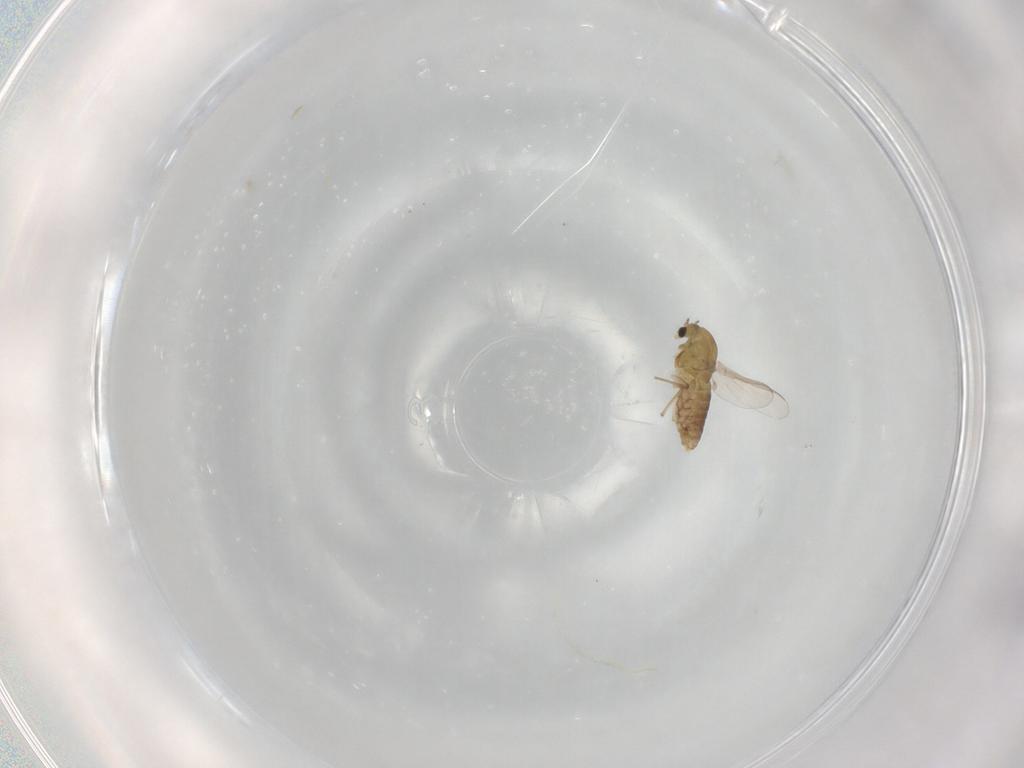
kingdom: Animalia
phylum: Arthropoda
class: Insecta
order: Diptera
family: Chironomidae
